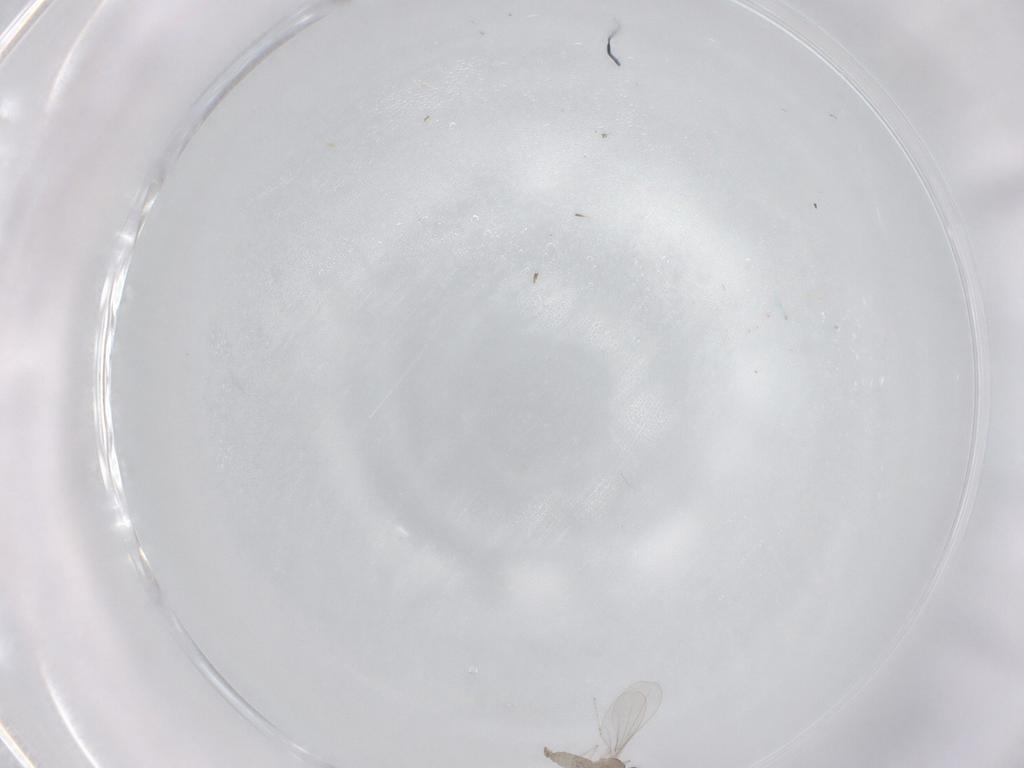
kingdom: Animalia
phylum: Arthropoda
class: Insecta
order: Diptera
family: Cecidomyiidae
